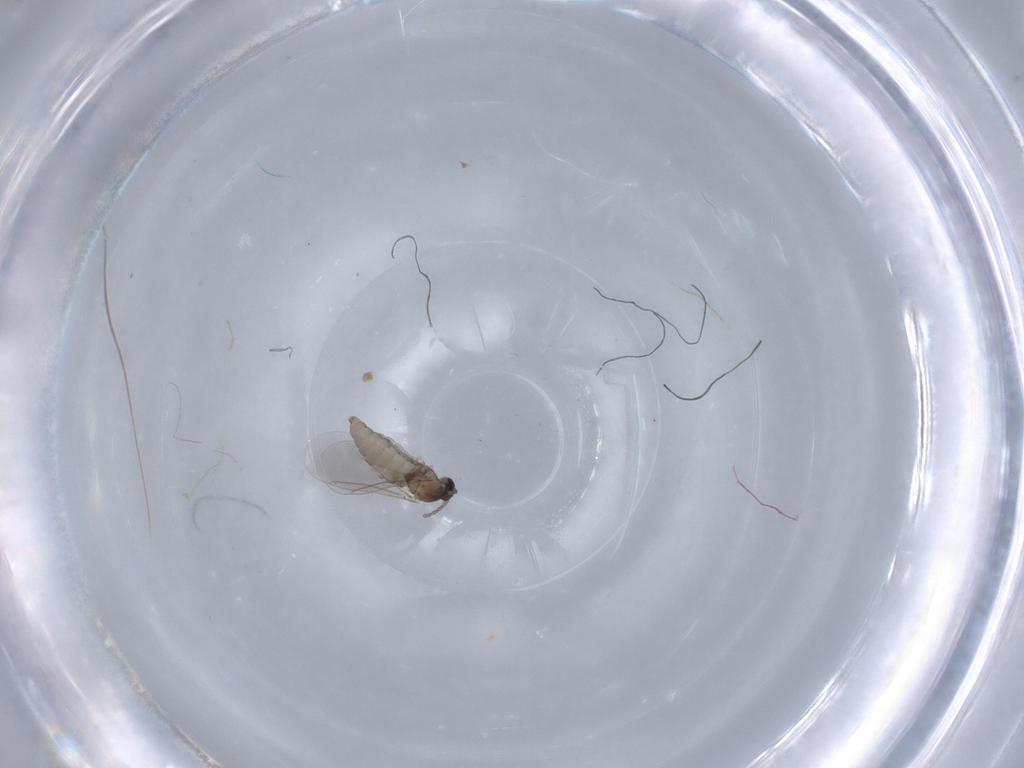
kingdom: Animalia
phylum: Arthropoda
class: Insecta
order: Diptera
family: Cecidomyiidae
